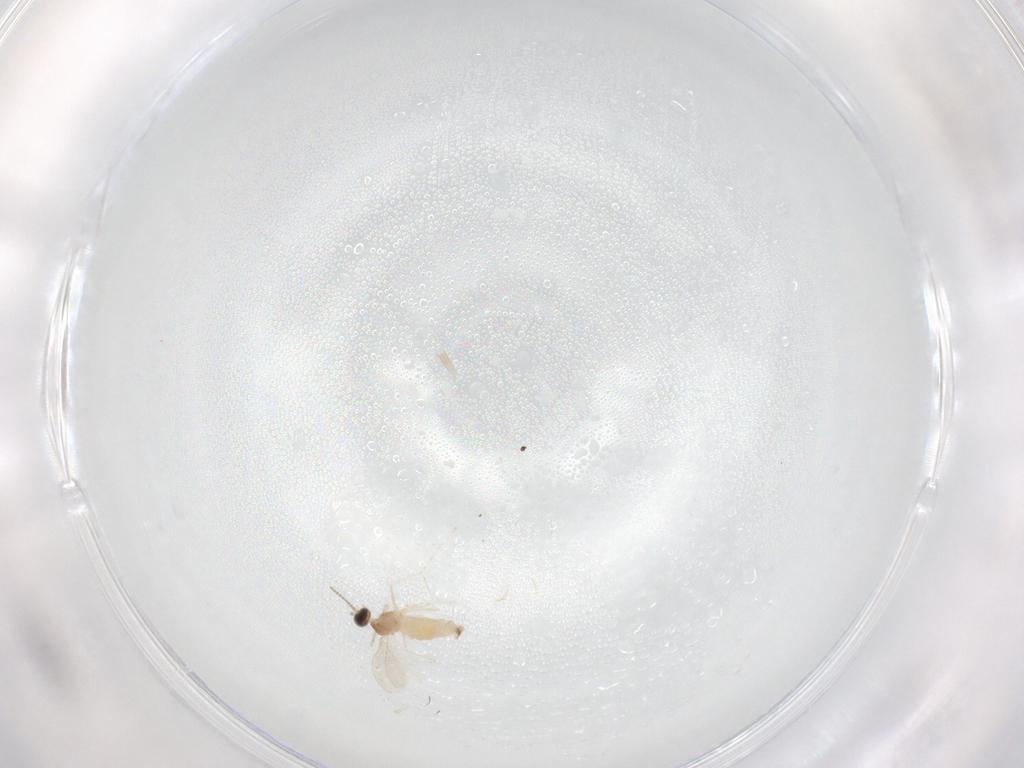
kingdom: Animalia
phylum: Arthropoda
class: Insecta
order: Diptera
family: Cecidomyiidae
